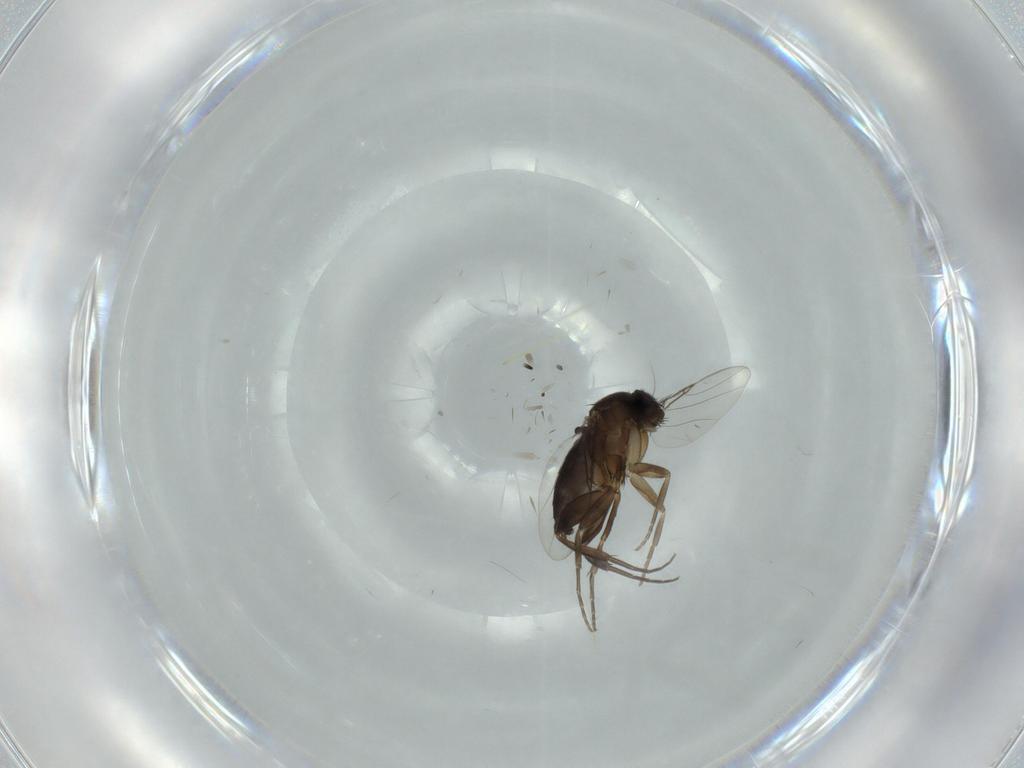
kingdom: Animalia
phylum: Arthropoda
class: Insecta
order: Diptera
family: Phoridae
